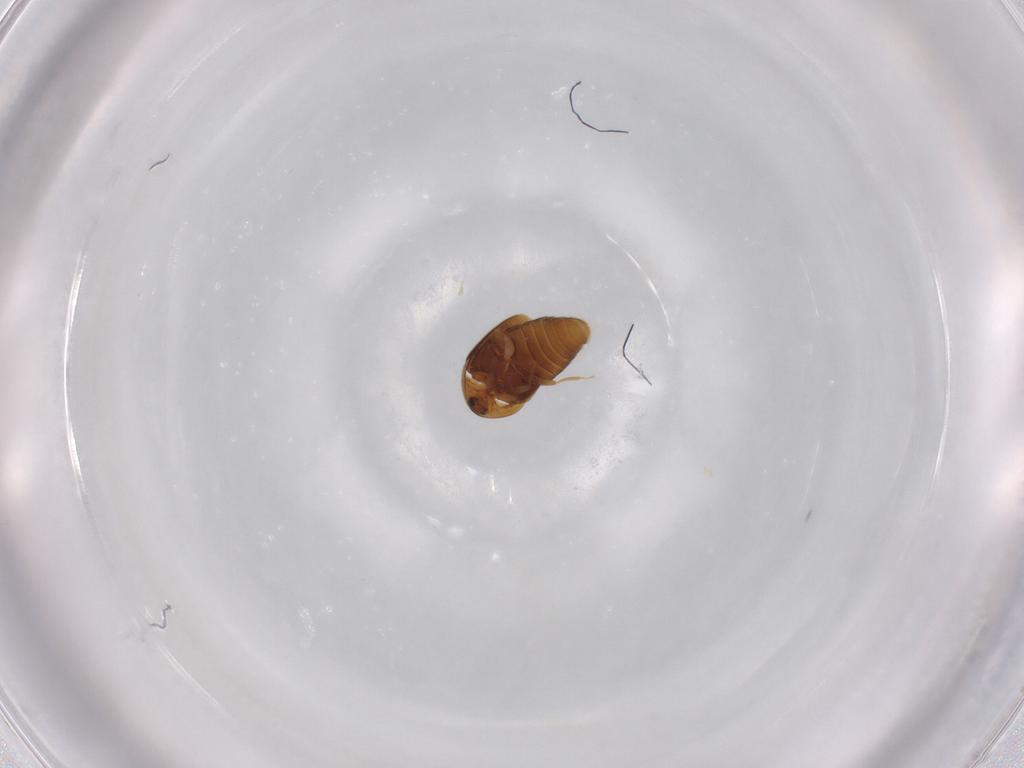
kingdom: Animalia
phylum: Arthropoda
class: Insecta
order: Coleoptera
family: Corylophidae
